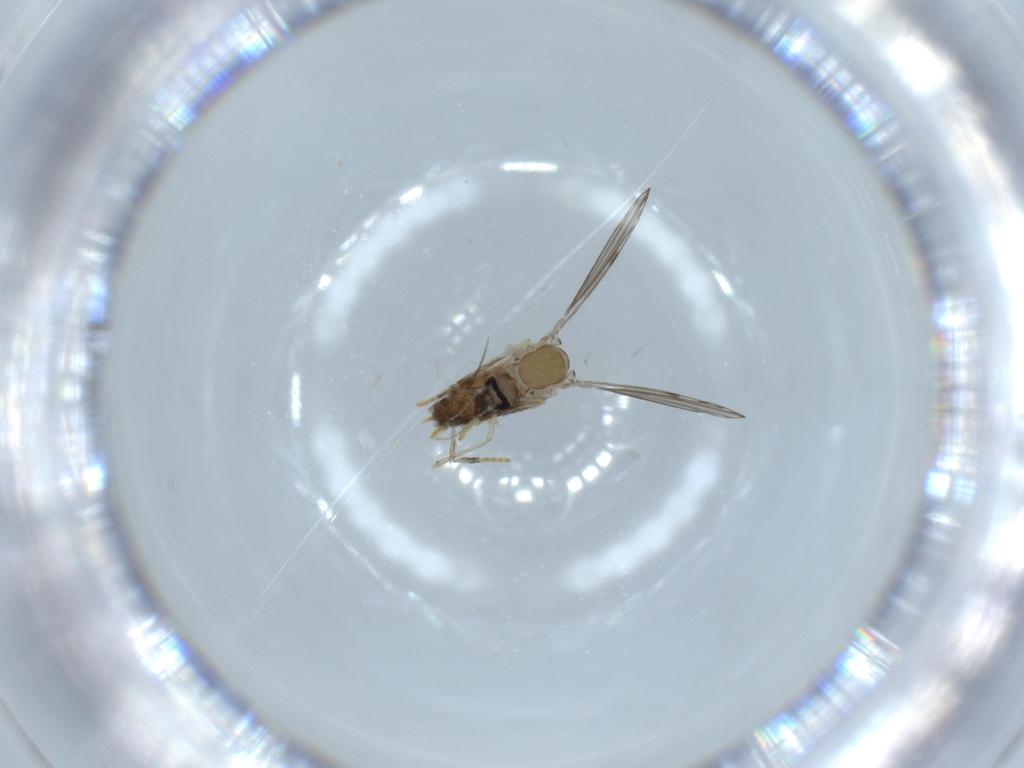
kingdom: Animalia
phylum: Arthropoda
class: Insecta
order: Diptera
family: Psychodidae
